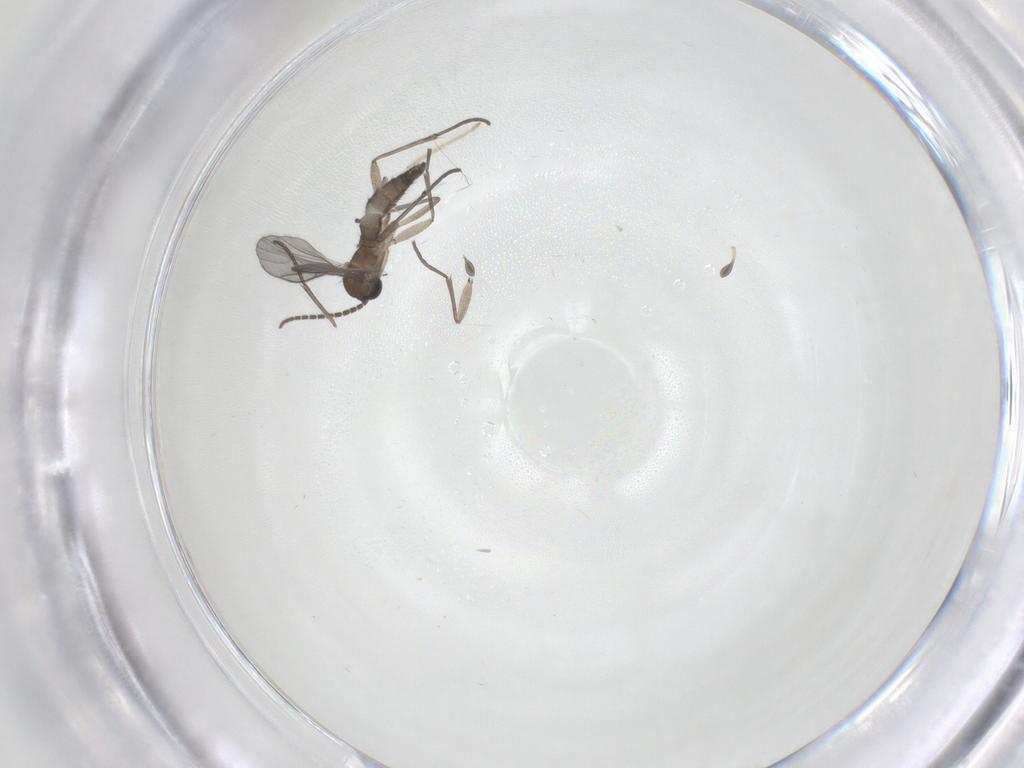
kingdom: Animalia
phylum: Arthropoda
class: Insecta
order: Diptera
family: Sciaridae
